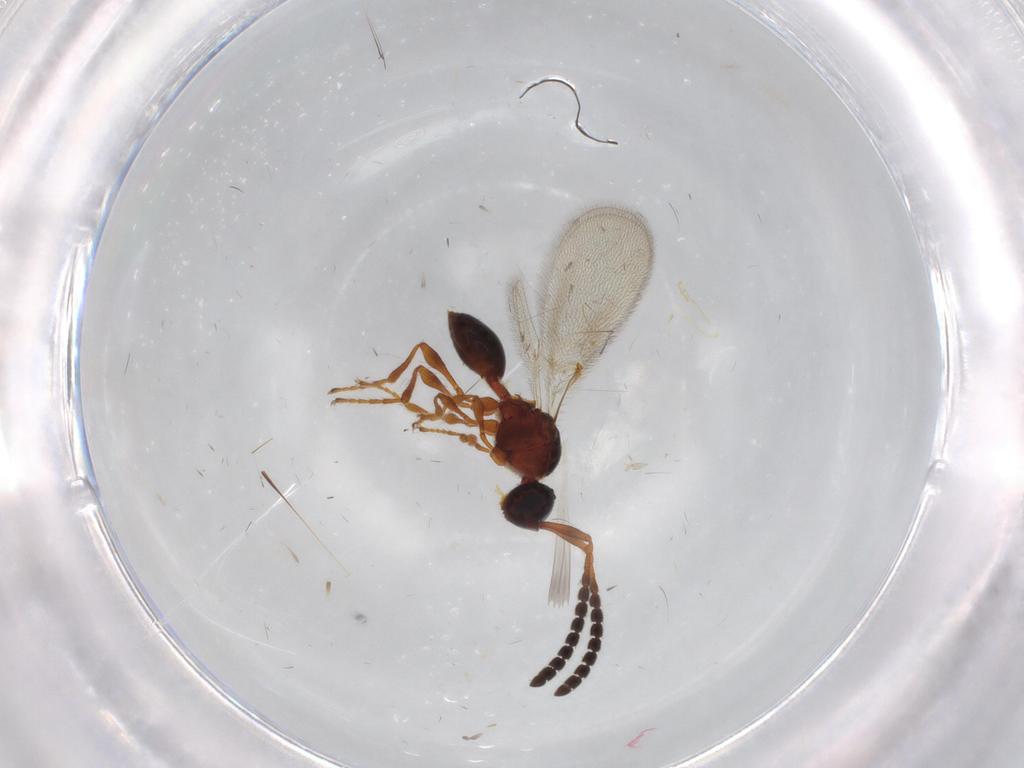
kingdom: Animalia
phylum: Arthropoda
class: Insecta
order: Hymenoptera
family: Diapriidae
